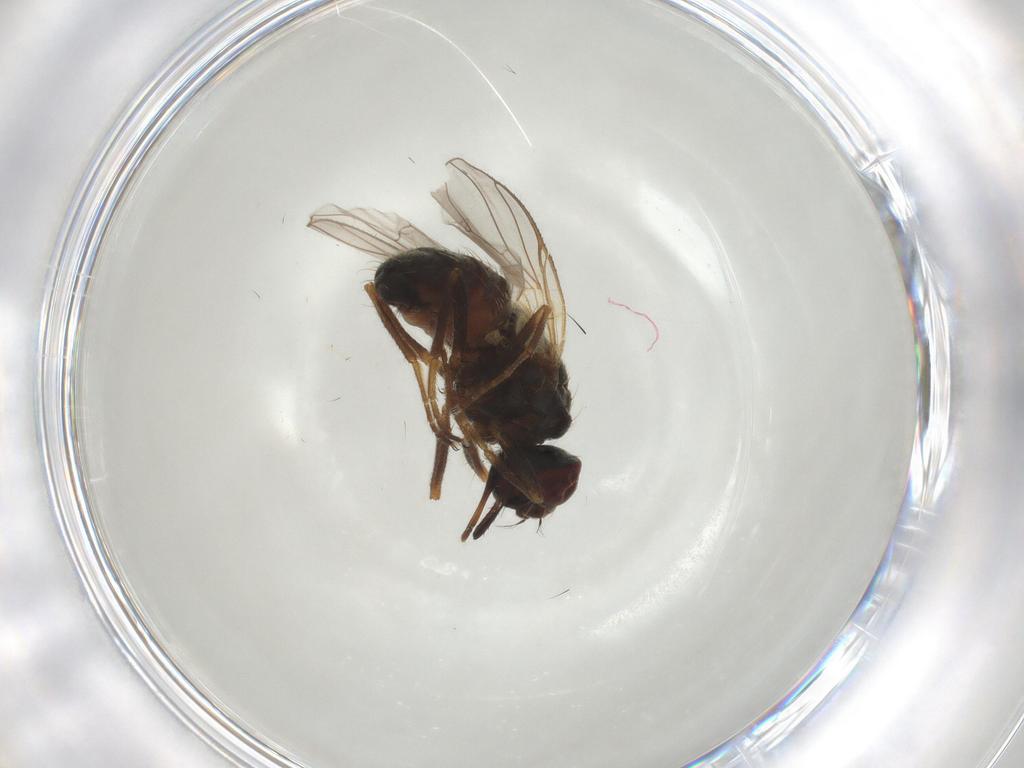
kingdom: Animalia
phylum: Arthropoda
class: Insecta
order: Diptera
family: Muscidae
